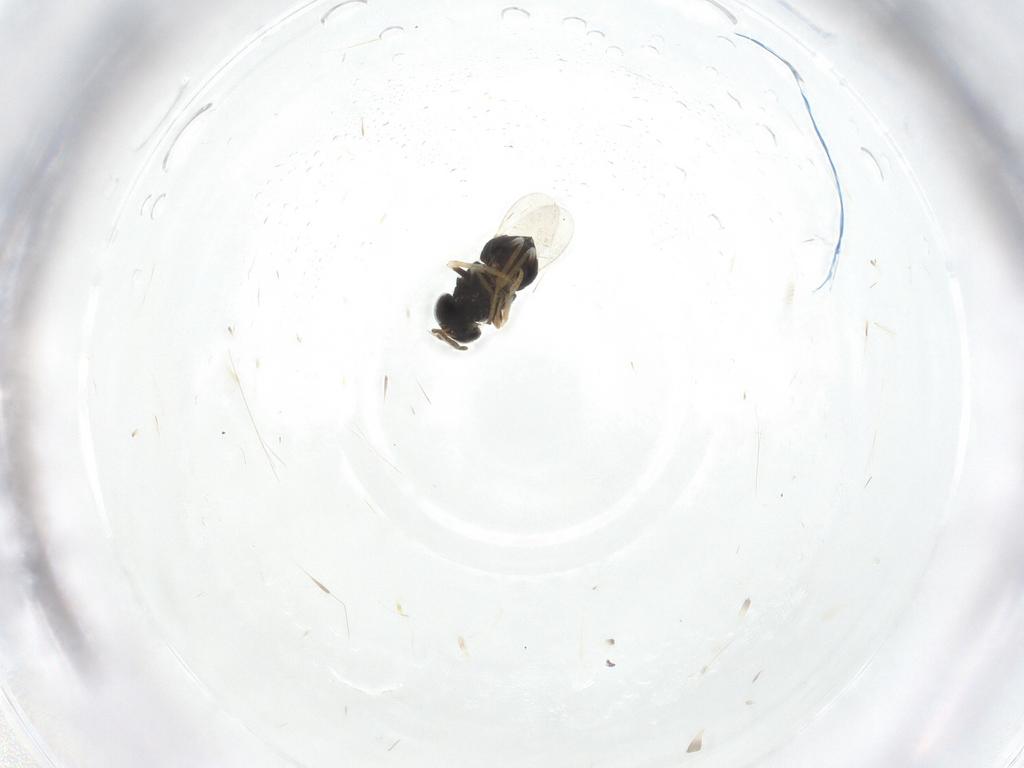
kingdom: Animalia
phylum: Arthropoda
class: Insecta
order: Hymenoptera
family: Encyrtidae
